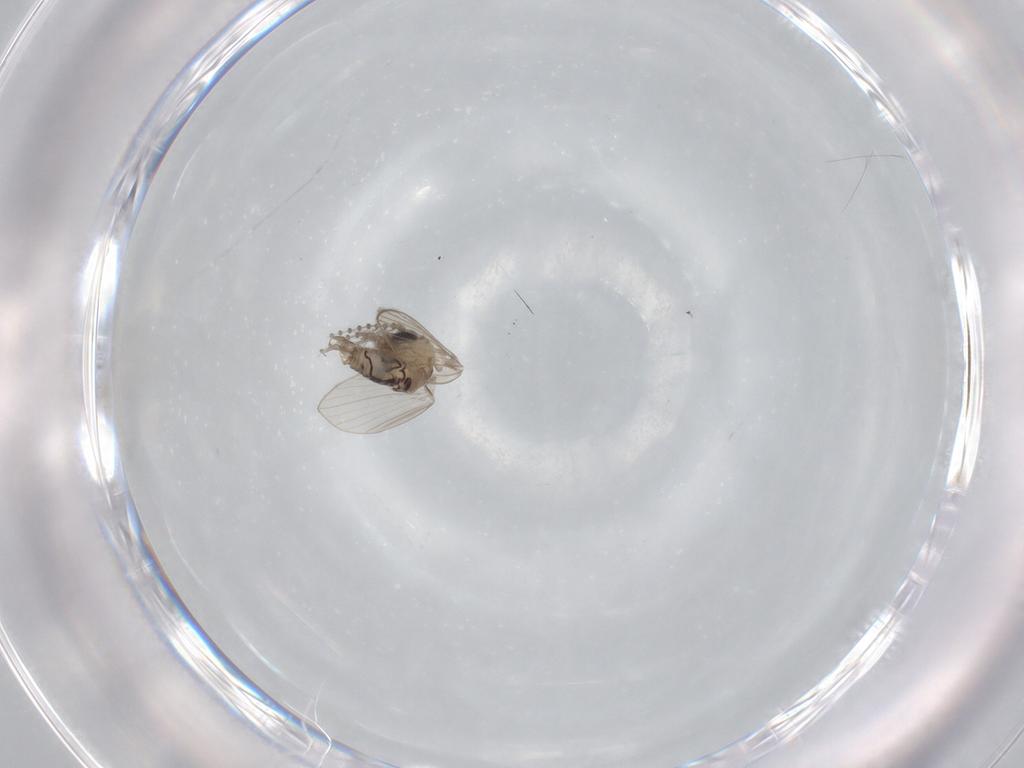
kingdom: Animalia
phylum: Arthropoda
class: Insecta
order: Diptera
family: Psychodidae
